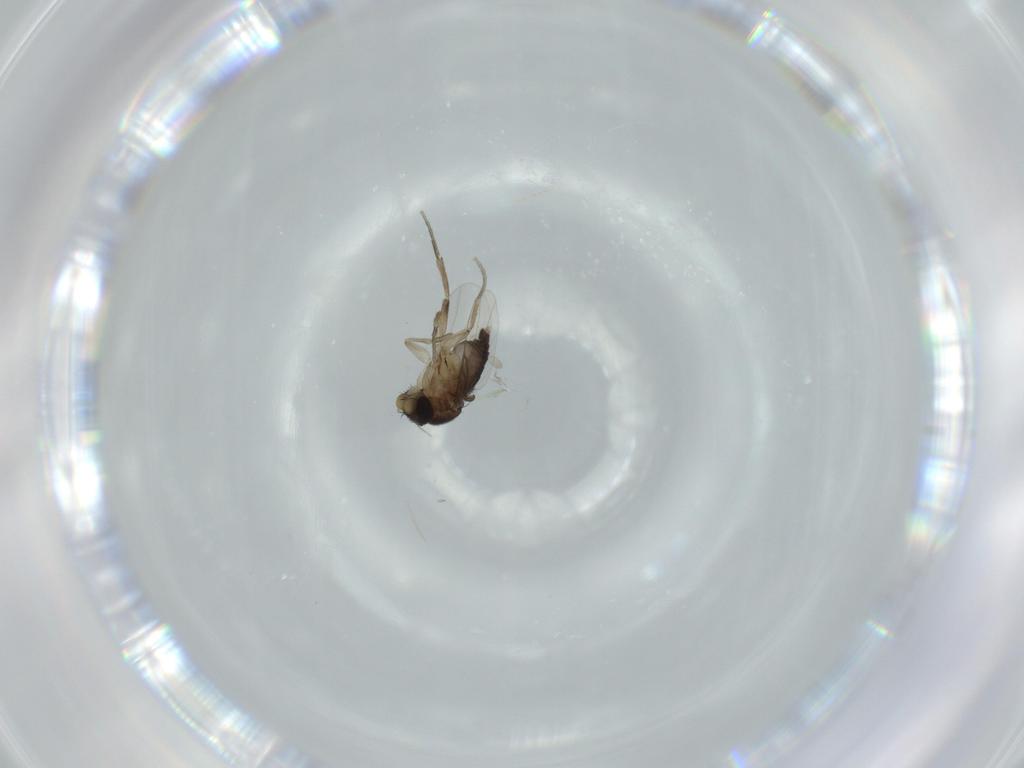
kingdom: Animalia
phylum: Arthropoda
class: Insecta
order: Diptera
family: Phoridae
